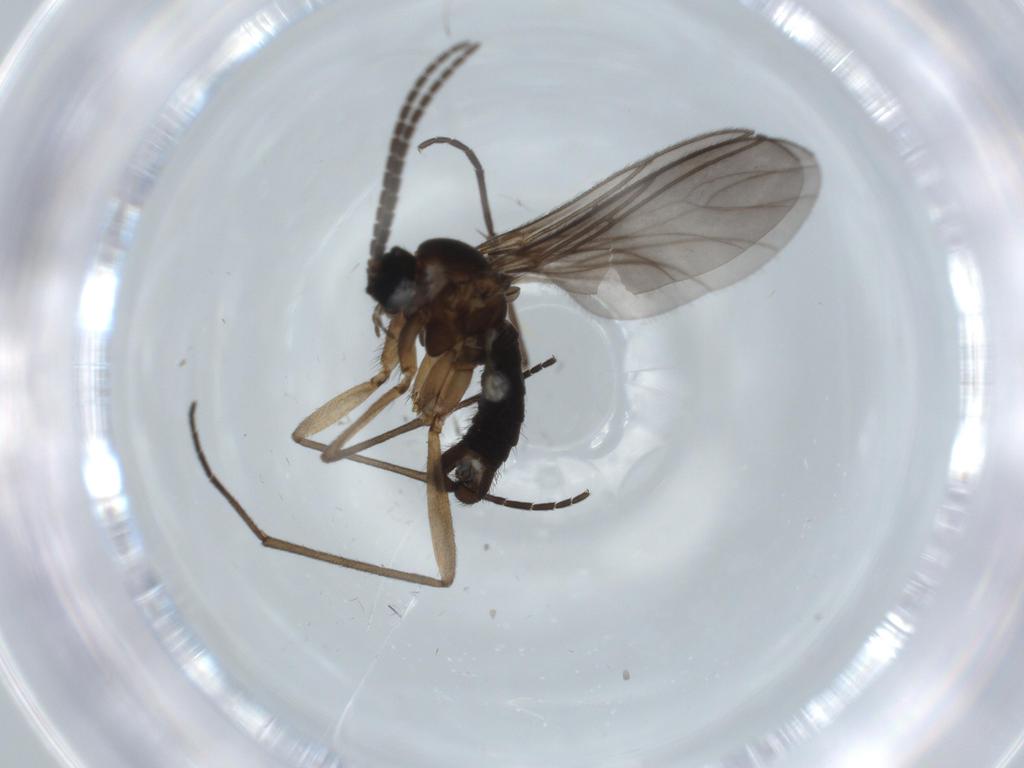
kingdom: Animalia
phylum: Arthropoda
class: Insecta
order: Diptera
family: Sciaridae
